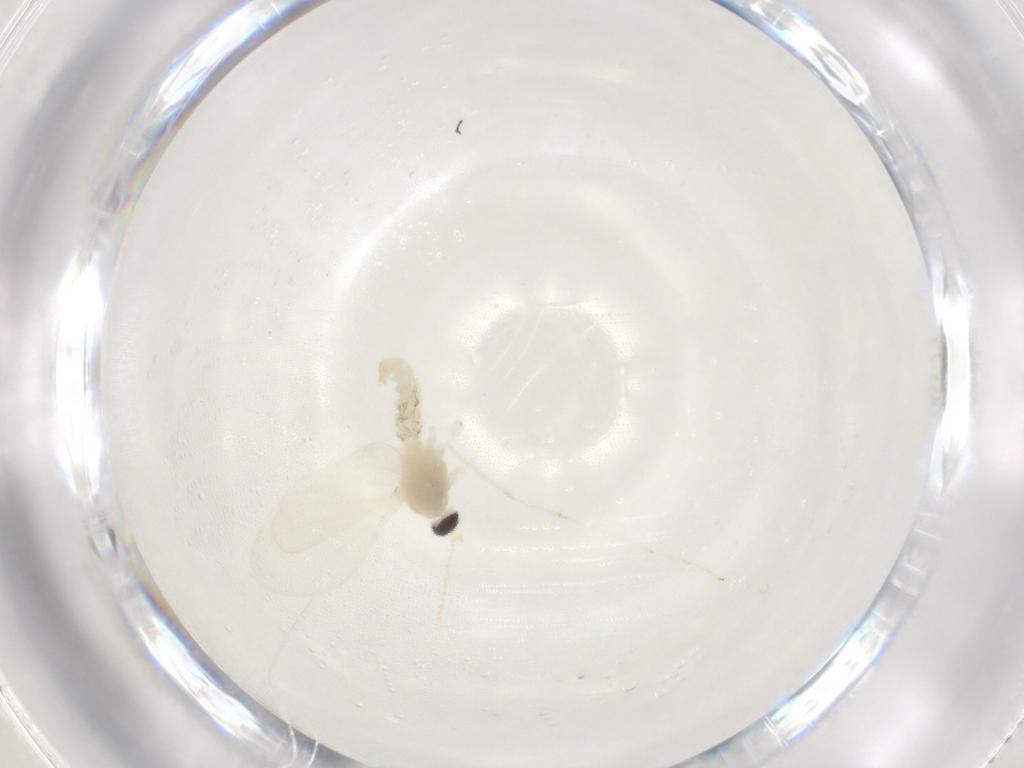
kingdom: Animalia
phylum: Arthropoda
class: Insecta
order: Diptera
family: Cecidomyiidae
